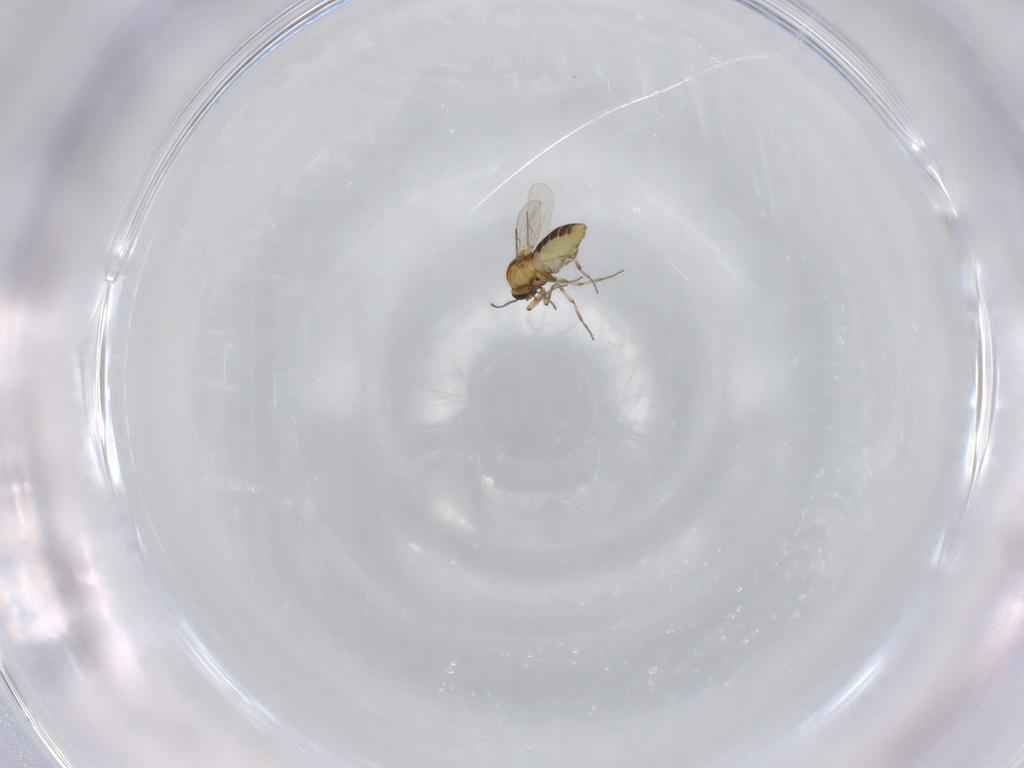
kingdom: Animalia
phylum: Arthropoda
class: Insecta
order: Diptera
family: Ceratopogonidae
